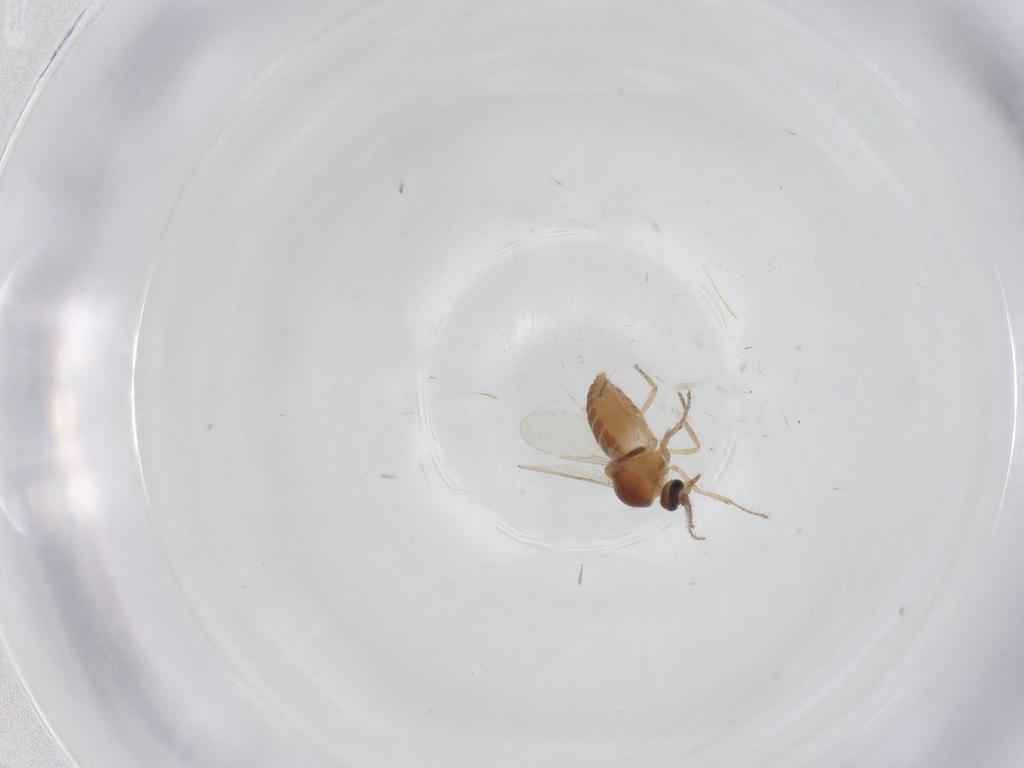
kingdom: Animalia
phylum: Arthropoda
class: Insecta
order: Diptera
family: Ceratopogonidae
